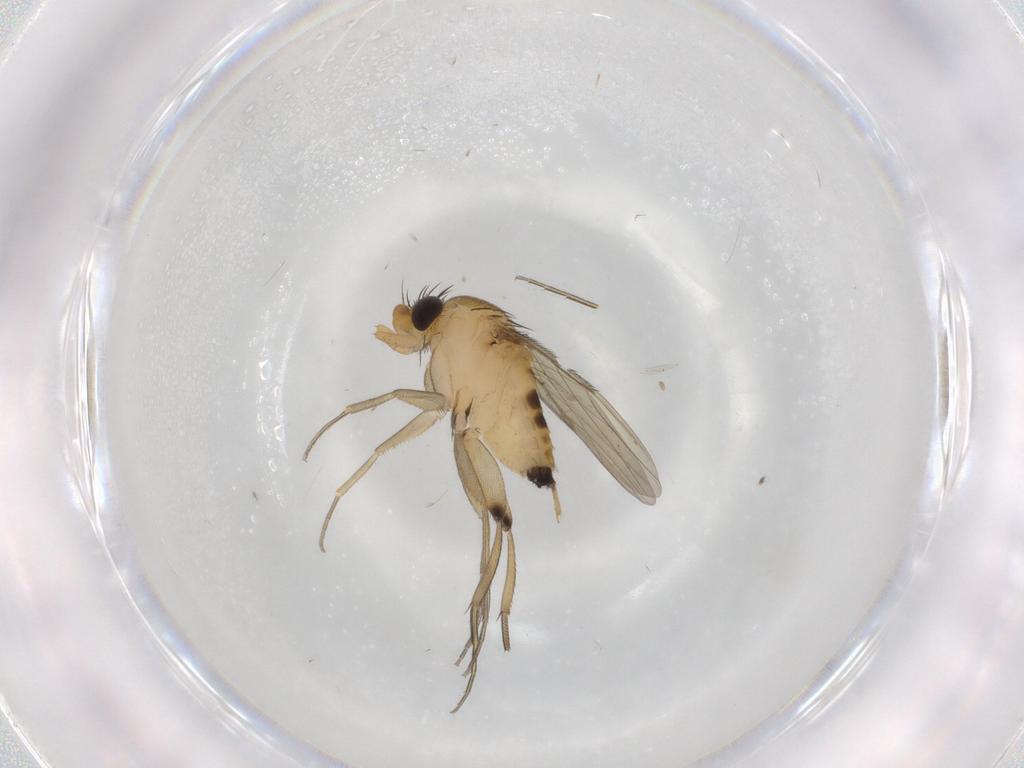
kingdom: Animalia
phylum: Arthropoda
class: Insecta
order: Diptera
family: Phoridae
